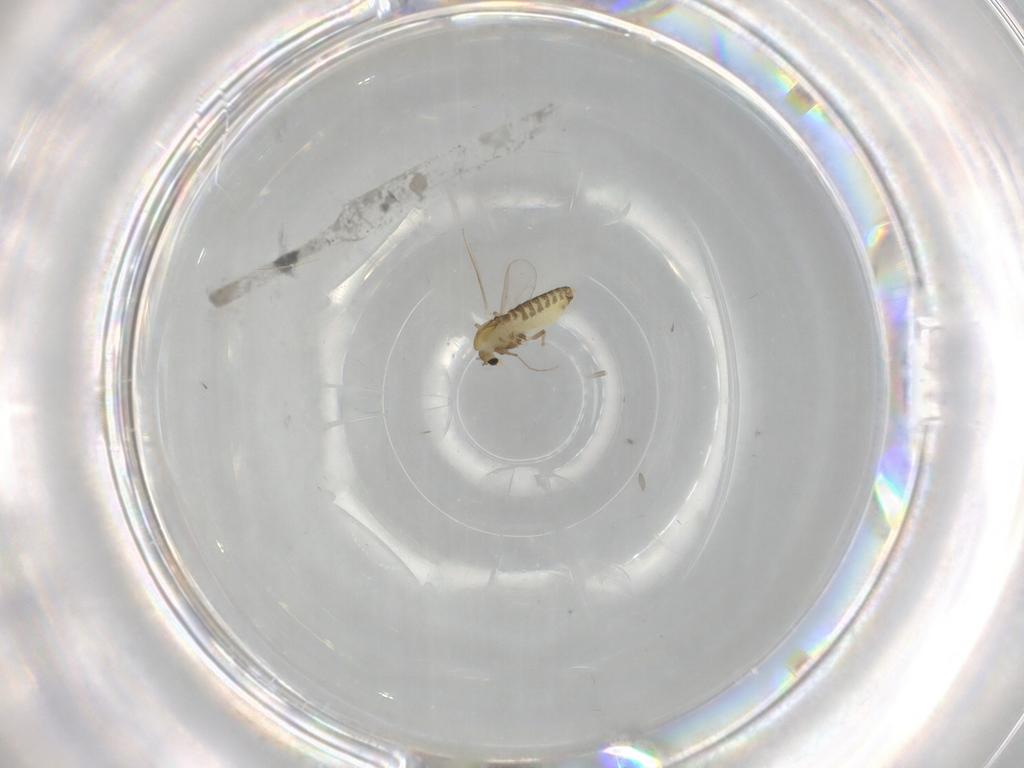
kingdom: Animalia
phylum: Arthropoda
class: Insecta
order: Diptera
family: Chironomidae
